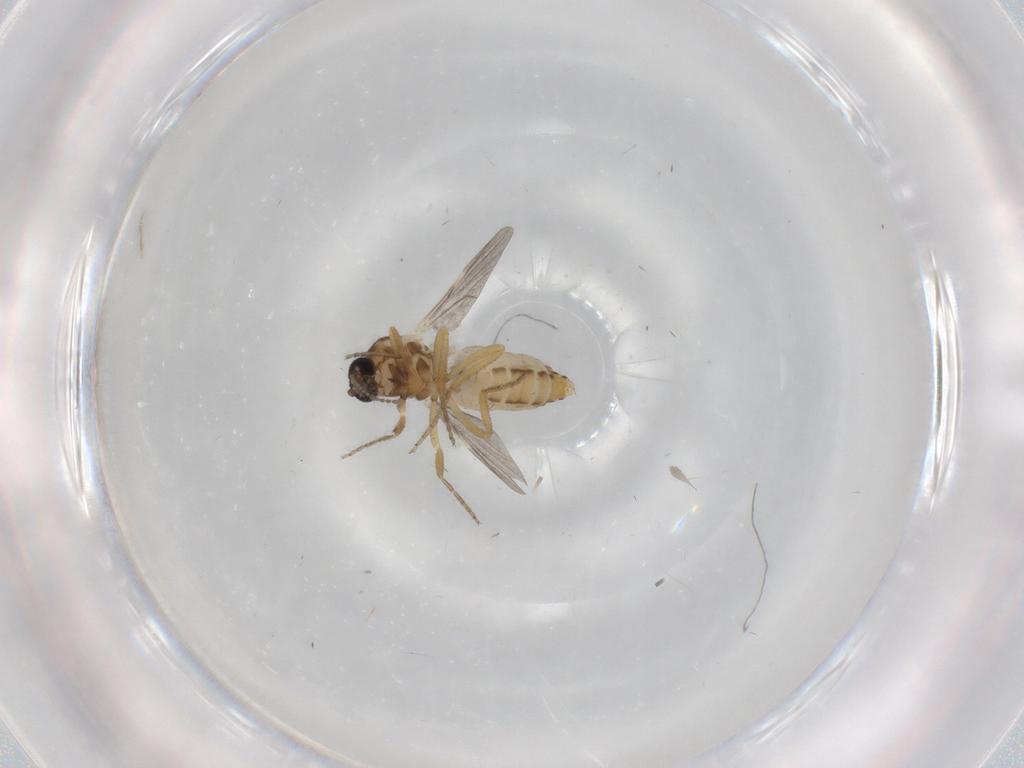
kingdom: Animalia
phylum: Arthropoda
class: Insecta
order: Diptera
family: Ceratopogonidae
